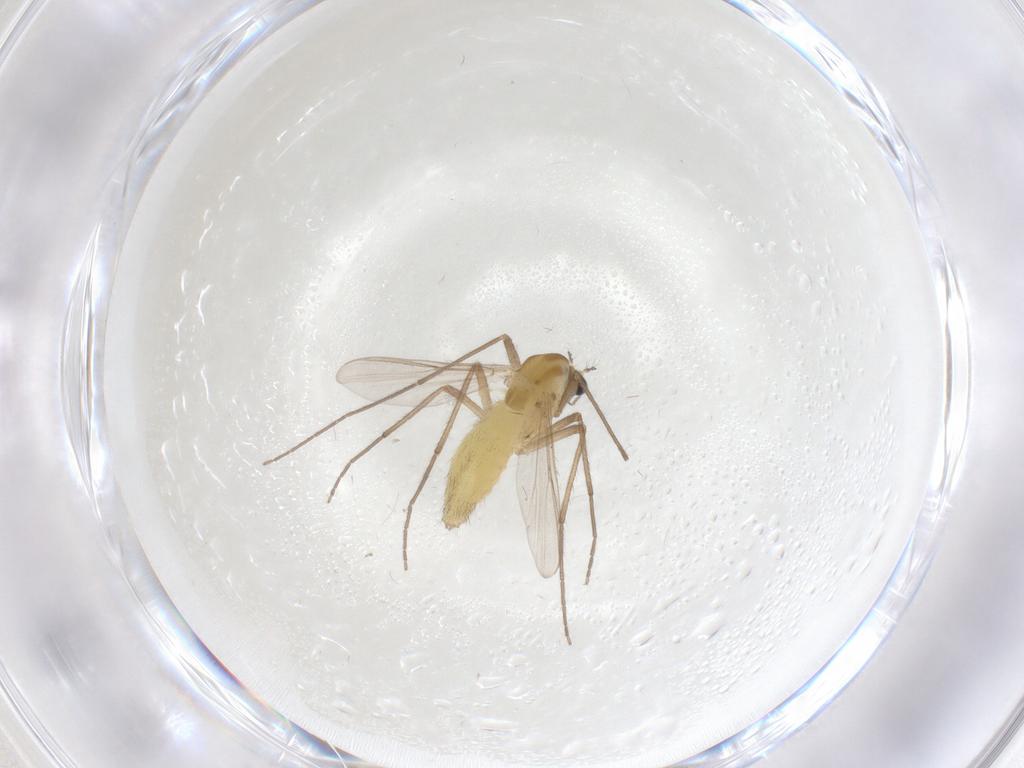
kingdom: Animalia
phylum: Arthropoda
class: Insecta
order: Diptera
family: Chironomidae
